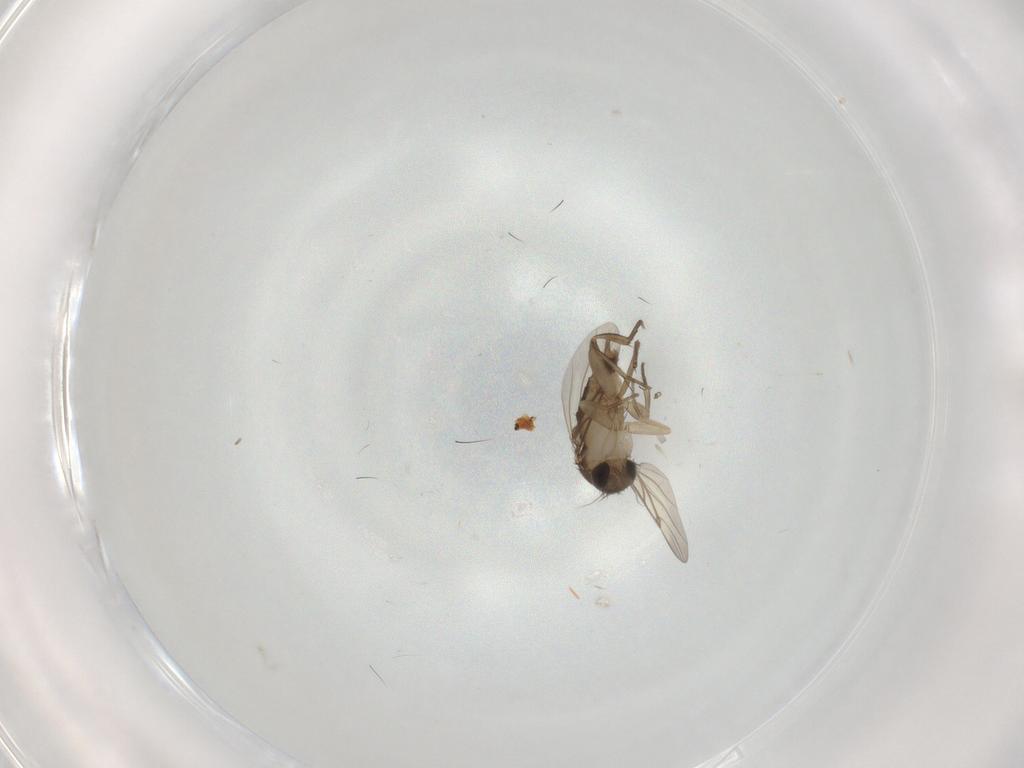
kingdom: Animalia
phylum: Arthropoda
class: Insecta
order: Diptera
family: Phoridae
